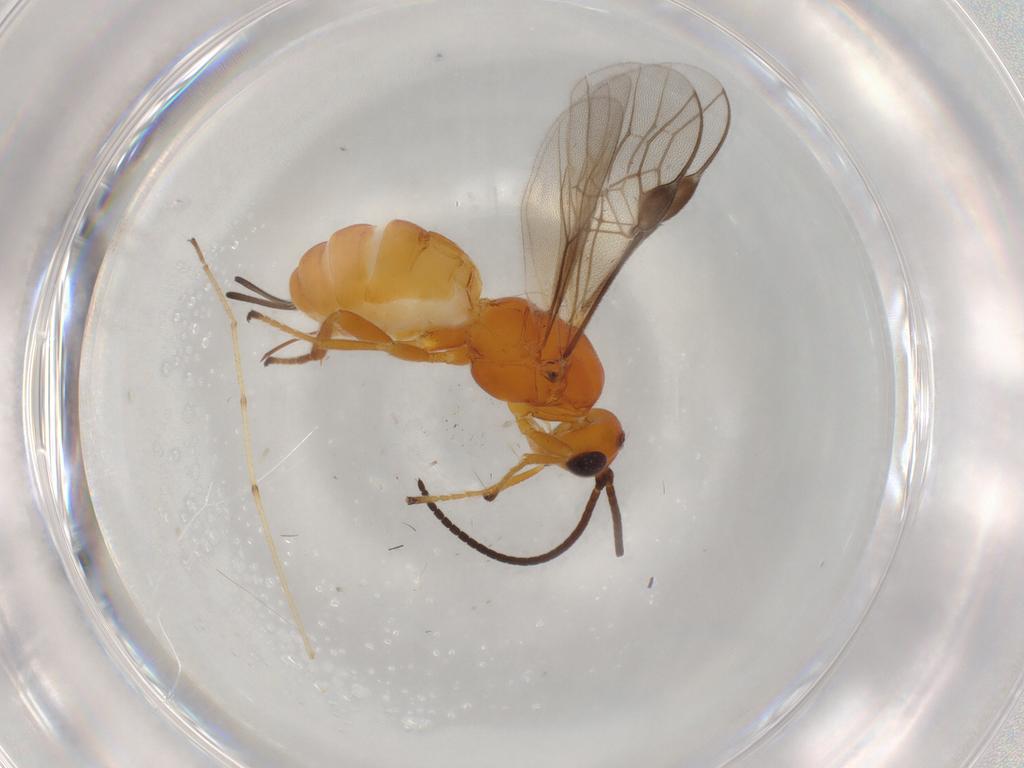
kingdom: Animalia
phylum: Arthropoda
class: Insecta
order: Hymenoptera
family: Braconidae
